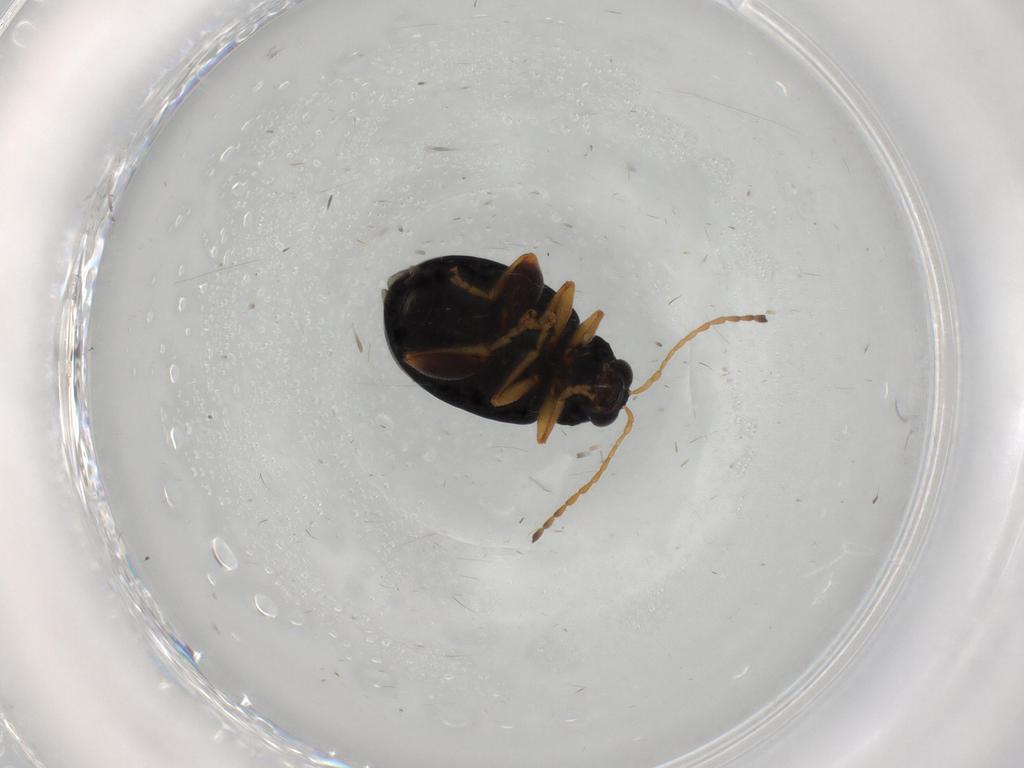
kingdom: Animalia
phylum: Arthropoda
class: Insecta
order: Coleoptera
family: Chrysomelidae
